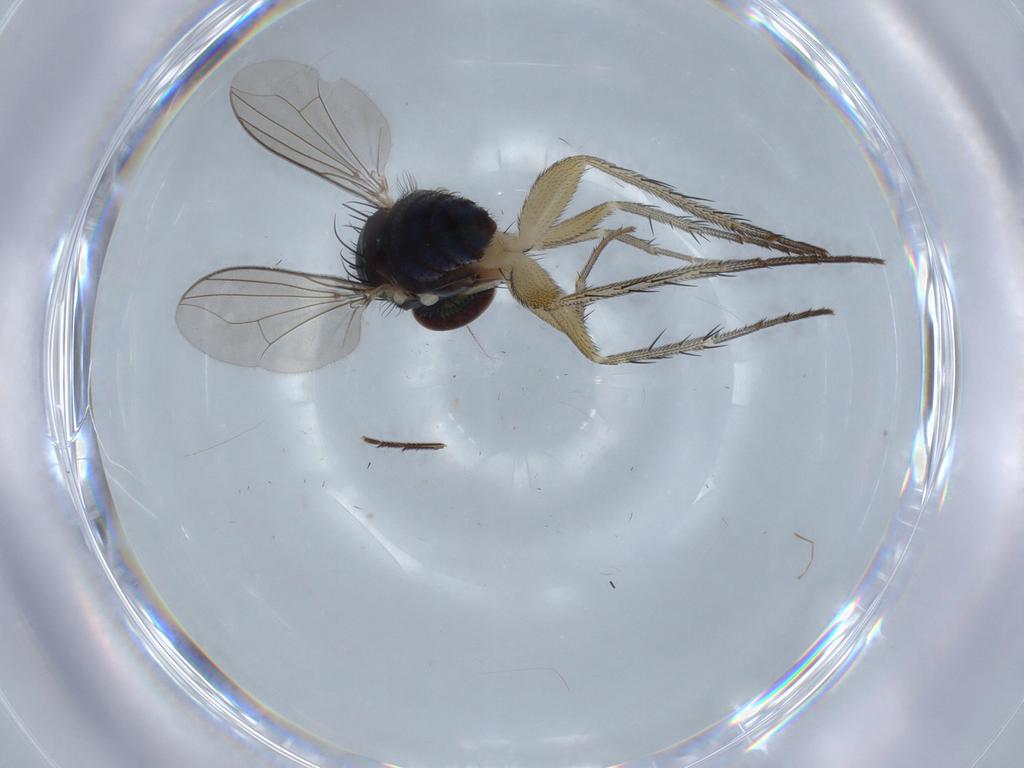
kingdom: Animalia
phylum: Arthropoda
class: Insecta
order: Diptera
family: Dolichopodidae
